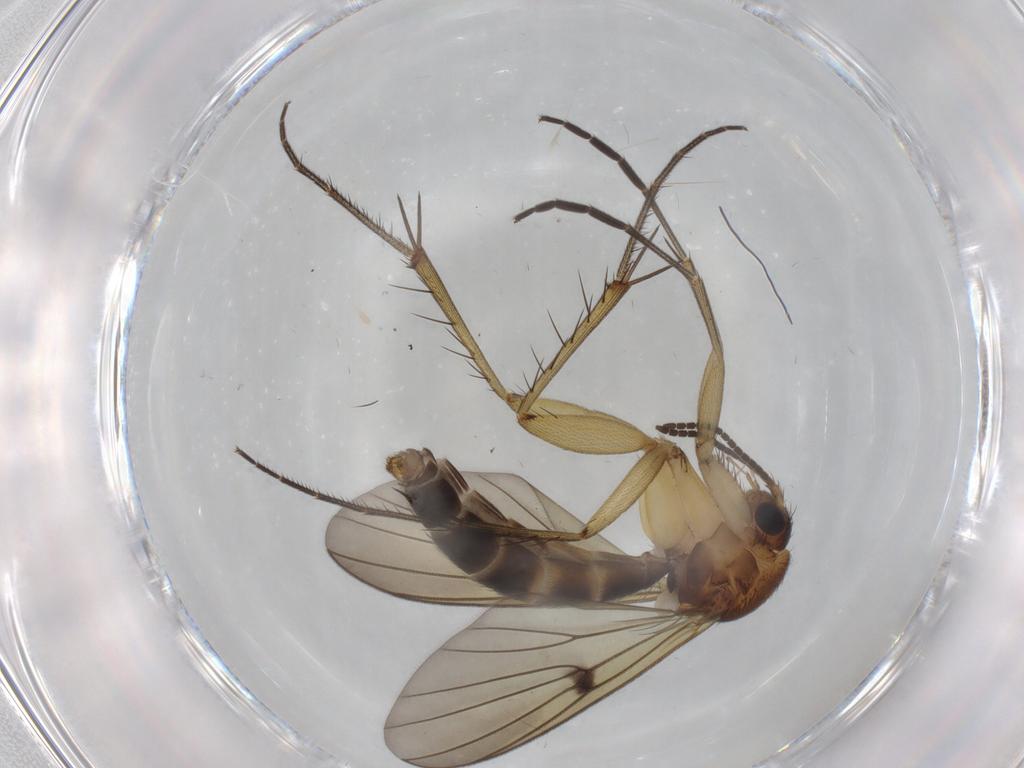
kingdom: Animalia
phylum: Arthropoda
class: Insecta
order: Diptera
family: Mycetophilidae
